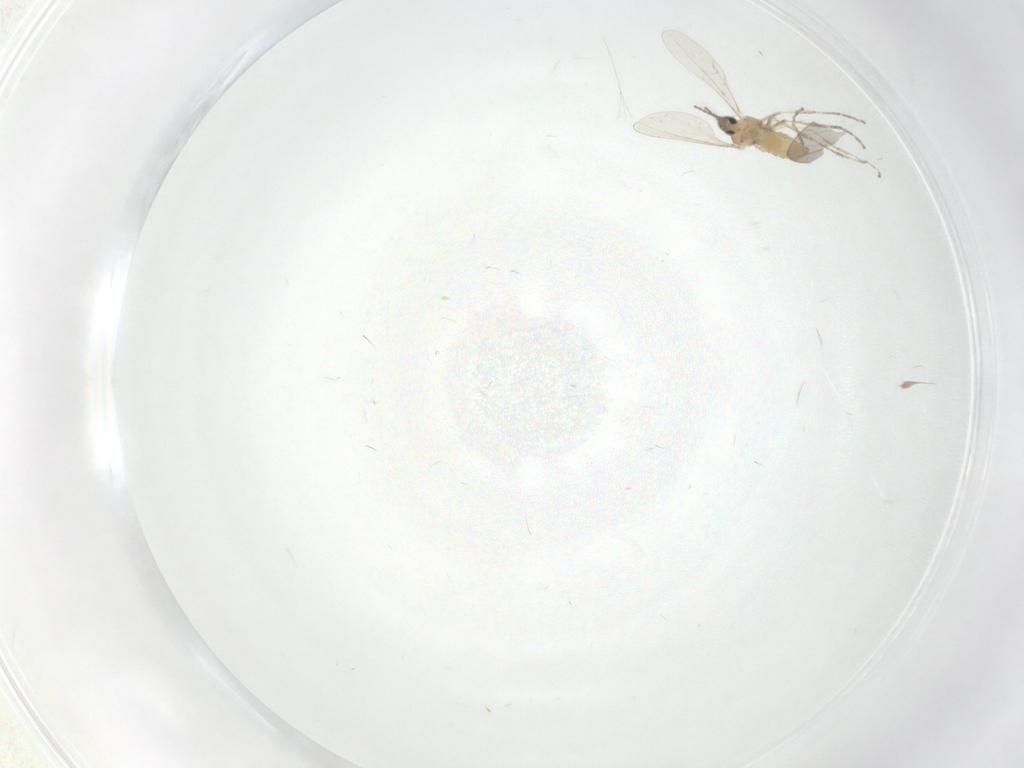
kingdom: Animalia
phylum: Arthropoda
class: Insecta
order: Diptera
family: Cecidomyiidae
